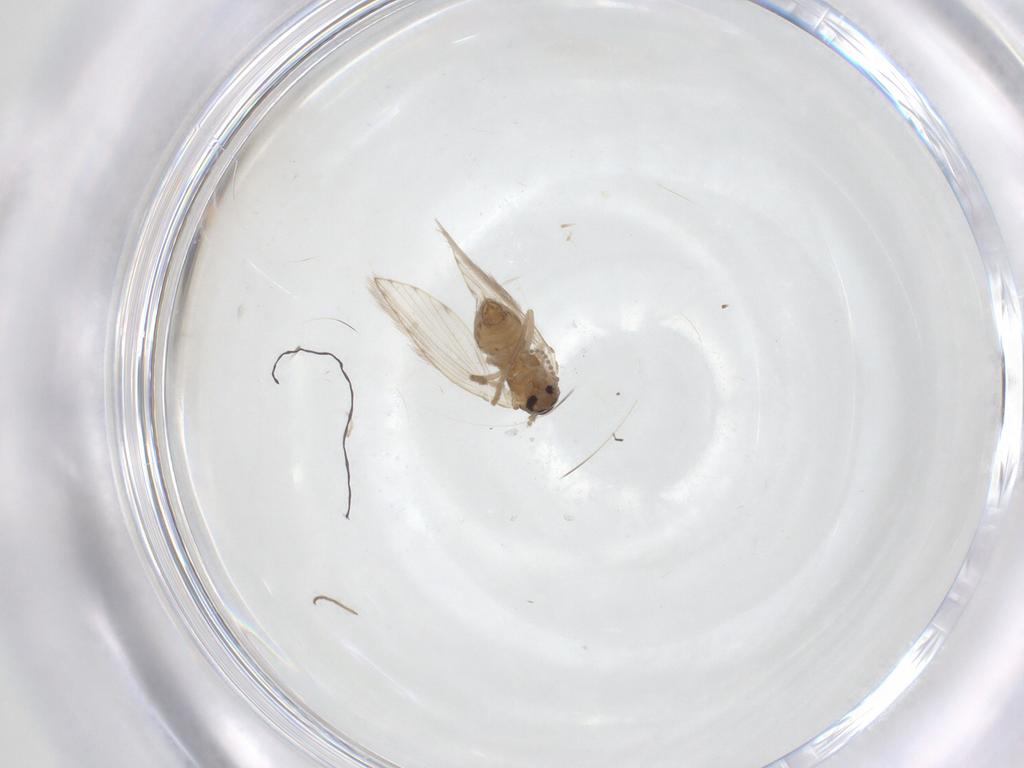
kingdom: Animalia
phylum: Arthropoda
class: Insecta
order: Diptera
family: Psychodidae
